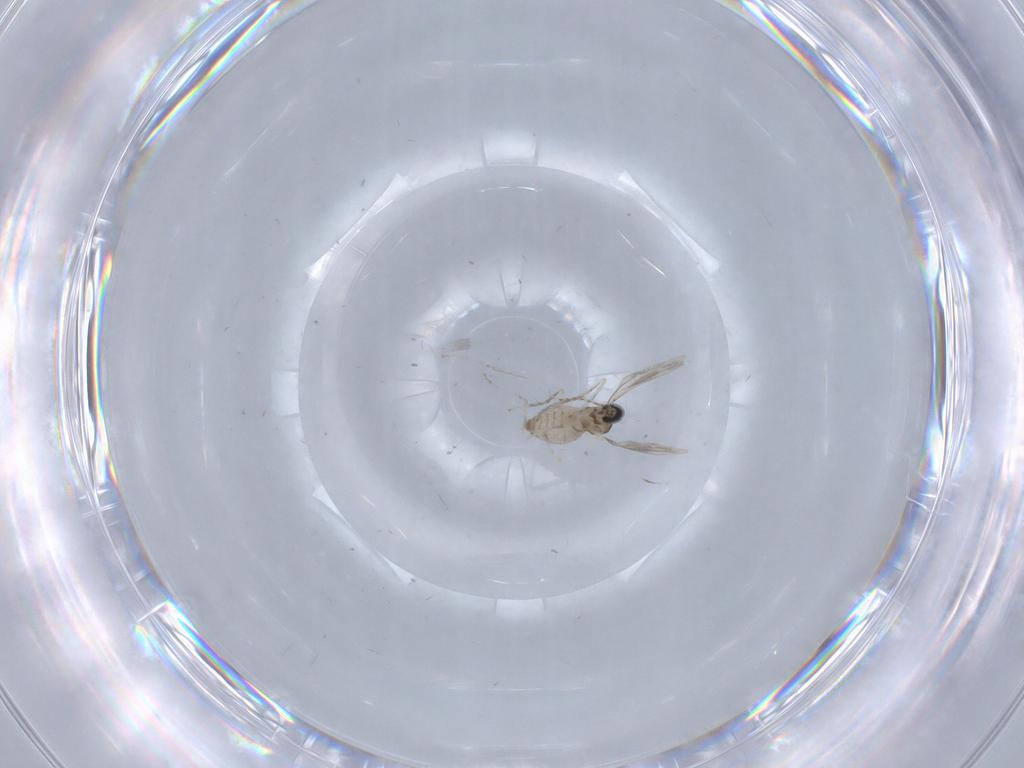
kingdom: Animalia
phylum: Arthropoda
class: Insecta
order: Diptera
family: Cecidomyiidae
